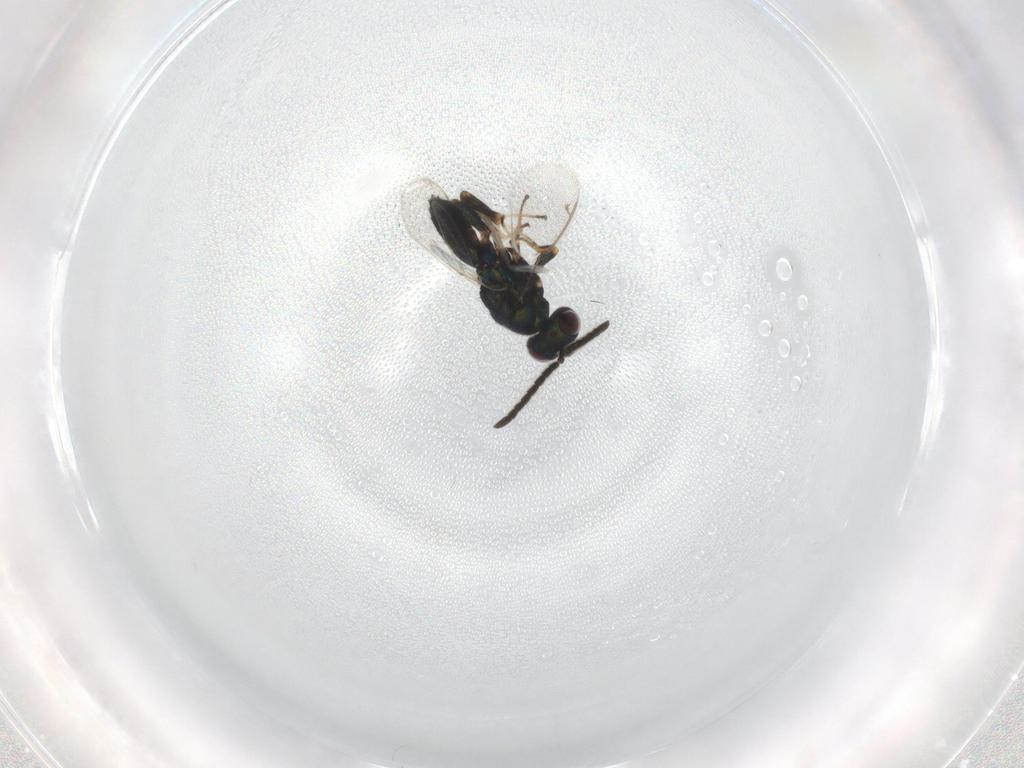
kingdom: Animalia
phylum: Arthropoda
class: Insecta
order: Hymenoptera
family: Eupelmidae
